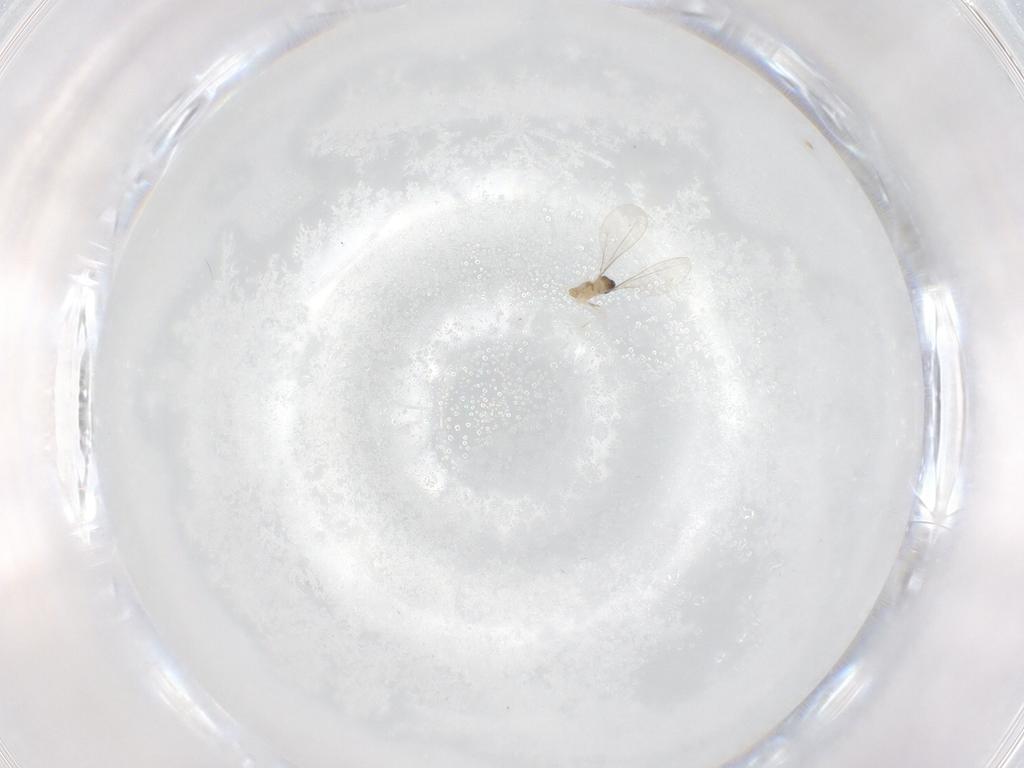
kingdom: Animalia
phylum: Arthropoda
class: Insecta
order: Diptera
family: Cecidomyiidae
